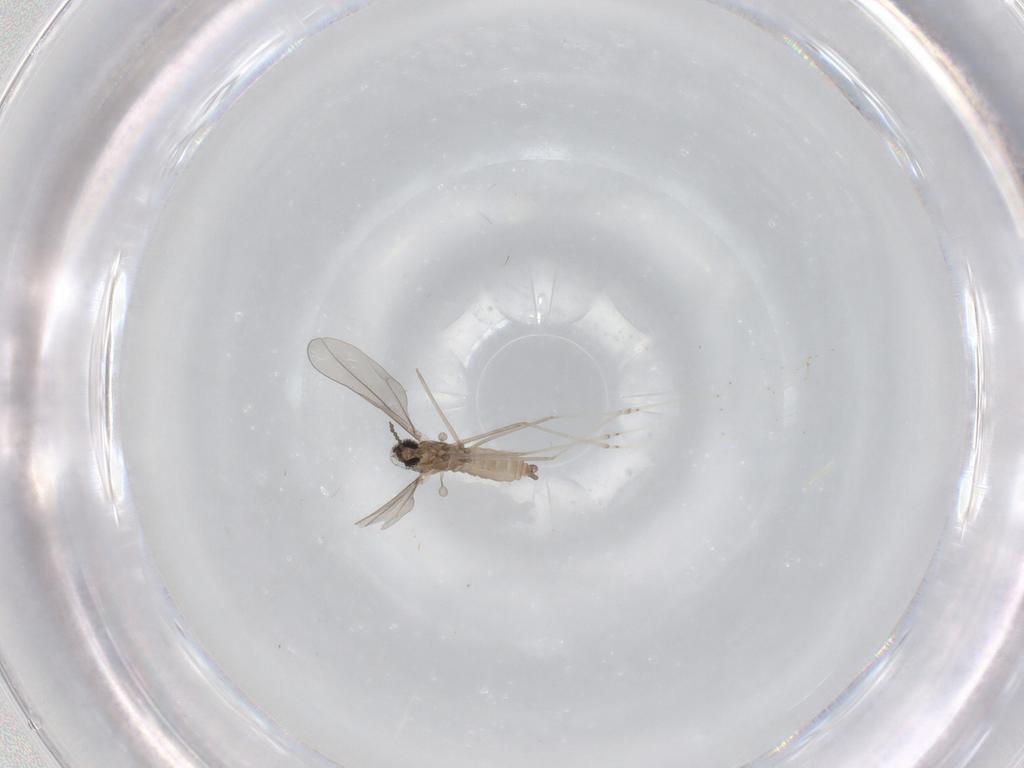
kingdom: Animalia
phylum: Arthropoda
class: Insecta
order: Diptera
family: Cecidomyiidae
